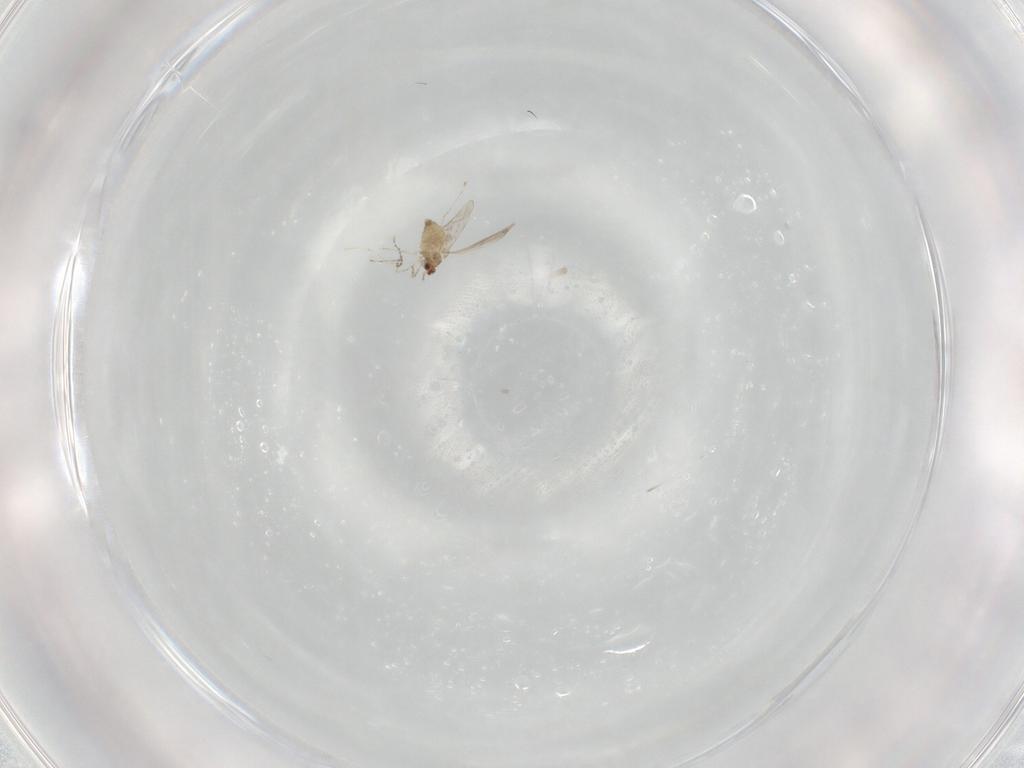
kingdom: Animalia
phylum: Arthropoda
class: Insecta
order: Diptera
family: Cecidomyiidae
